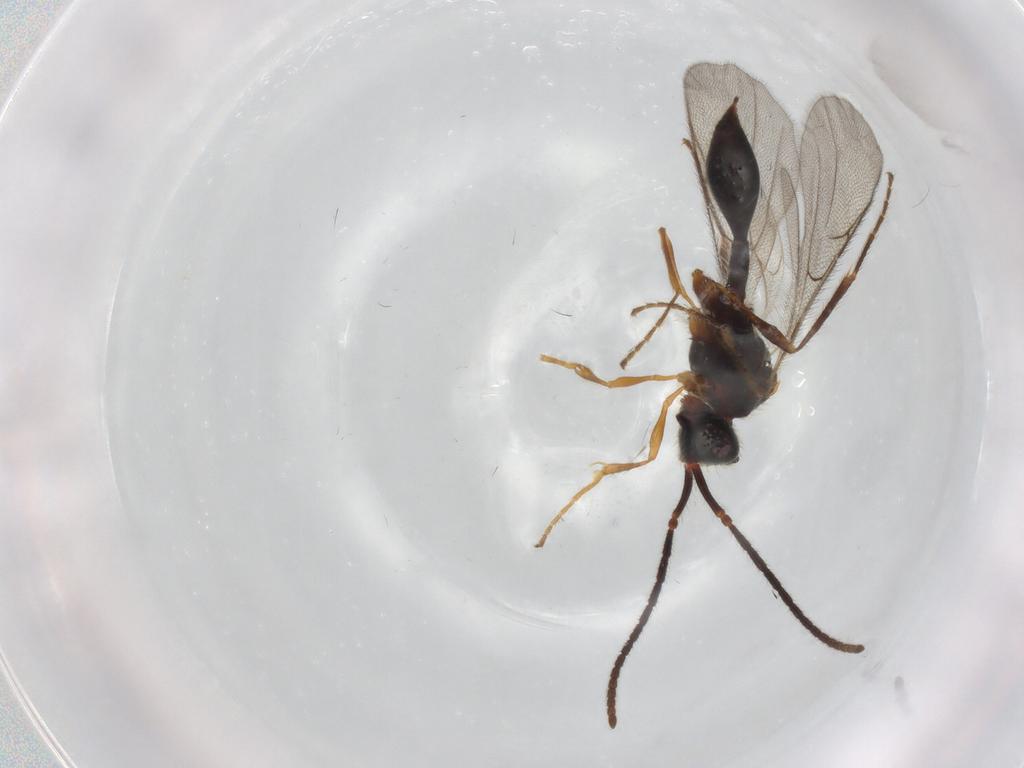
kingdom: Animalia
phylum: Arthropoda
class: Insecta
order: Hymenoptera
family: Diapriidae
